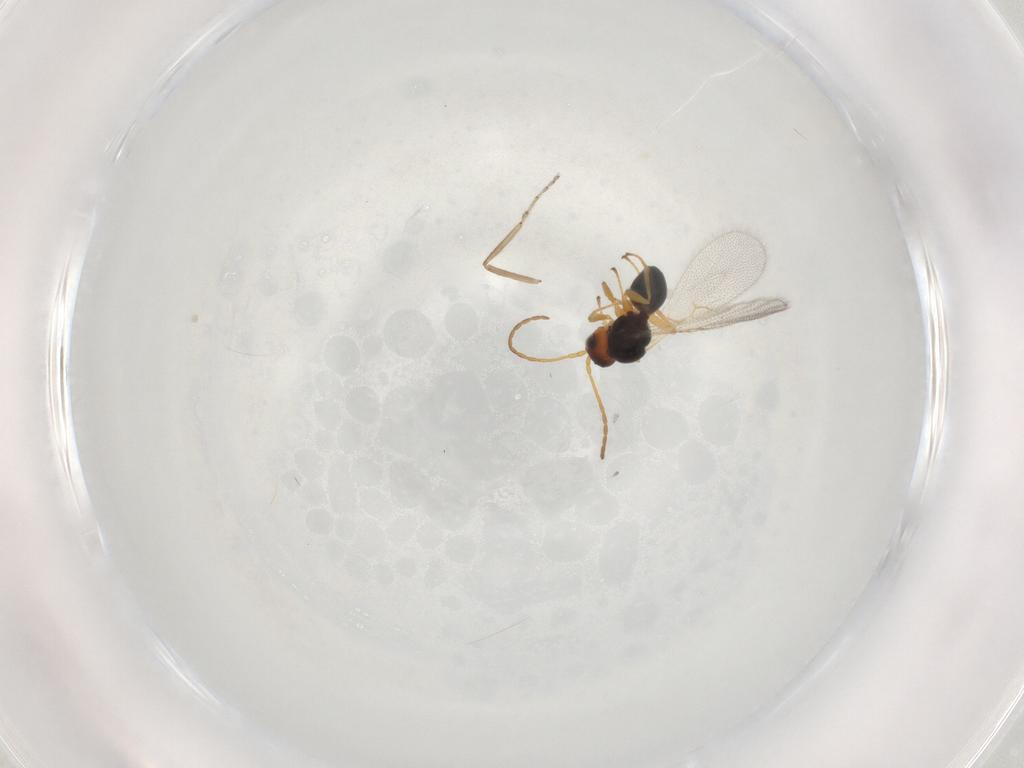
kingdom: Animalia
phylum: Arthropoda
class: Insecta
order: Hymenoptera
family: Figitidae
